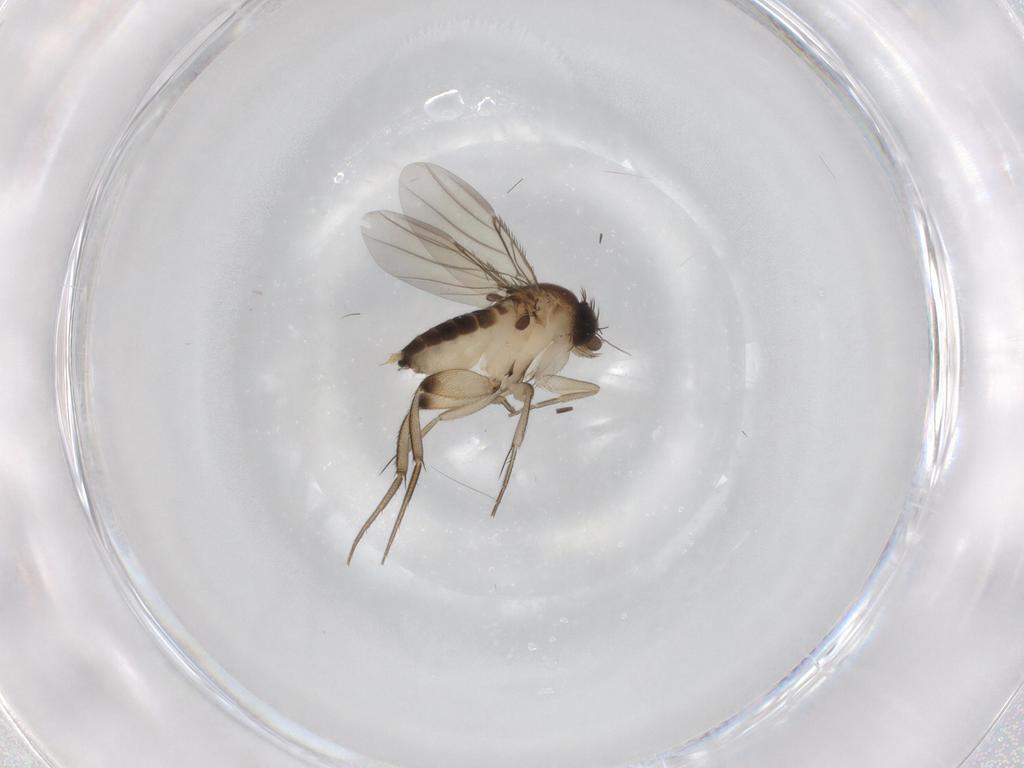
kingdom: Animalia
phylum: Arthropoda
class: Insecta
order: Diptera
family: Phoridae
